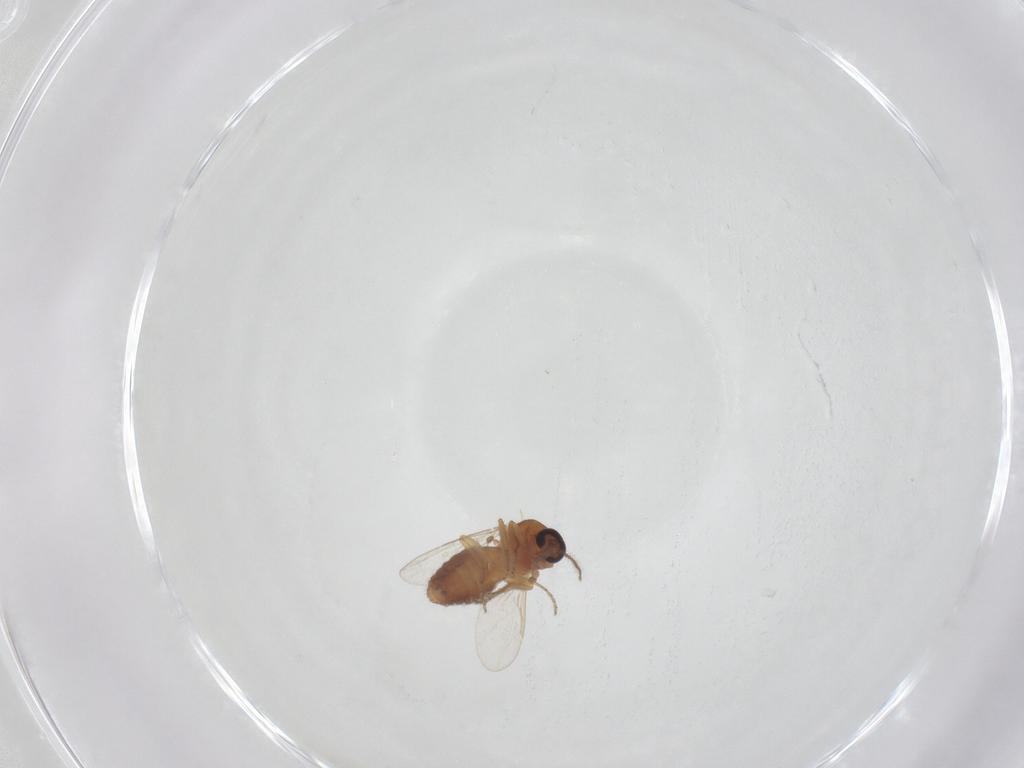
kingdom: Animalia
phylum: Arthropoda
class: Insecta
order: Diptera
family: Ceratopogonidae
